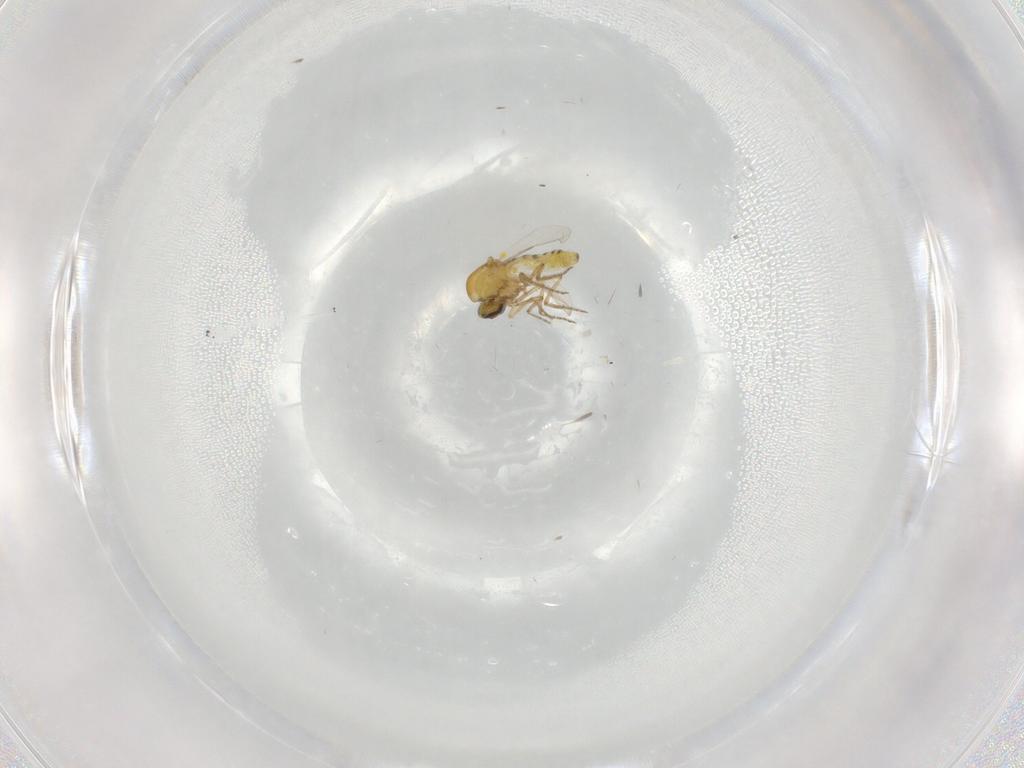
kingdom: Animalia
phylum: Arthropoda
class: Insecta
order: Diptera
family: Ceratopogonidae
